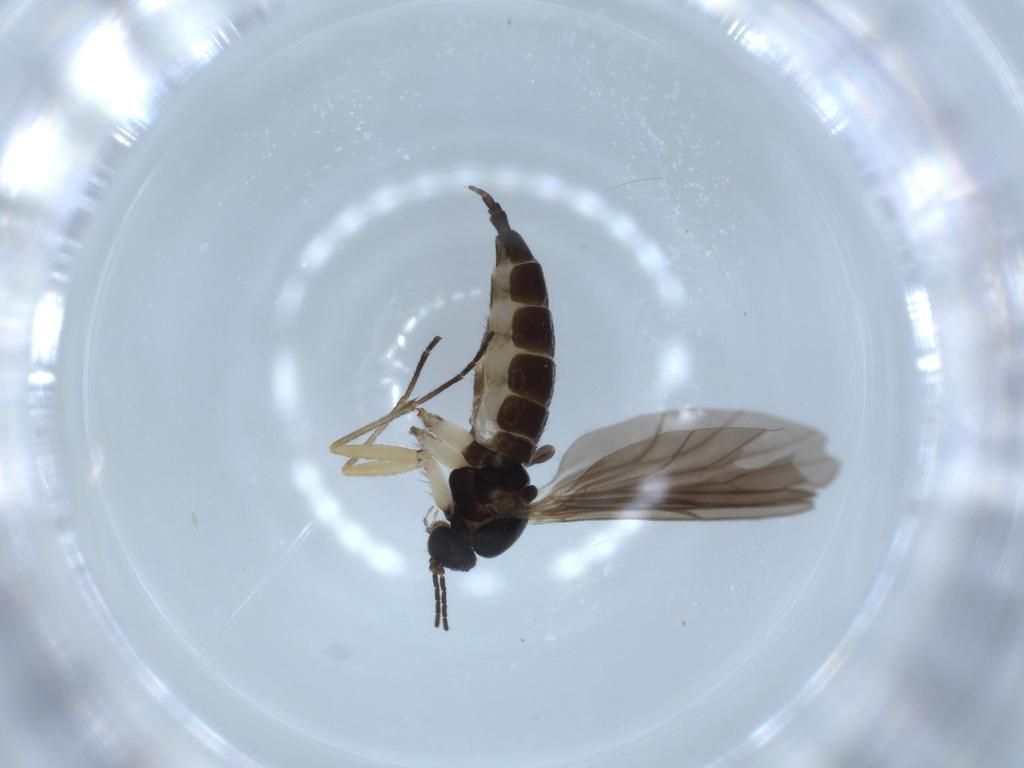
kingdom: Animalia
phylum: Arthropoda
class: Insecta
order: Diptera
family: Sciaridae
